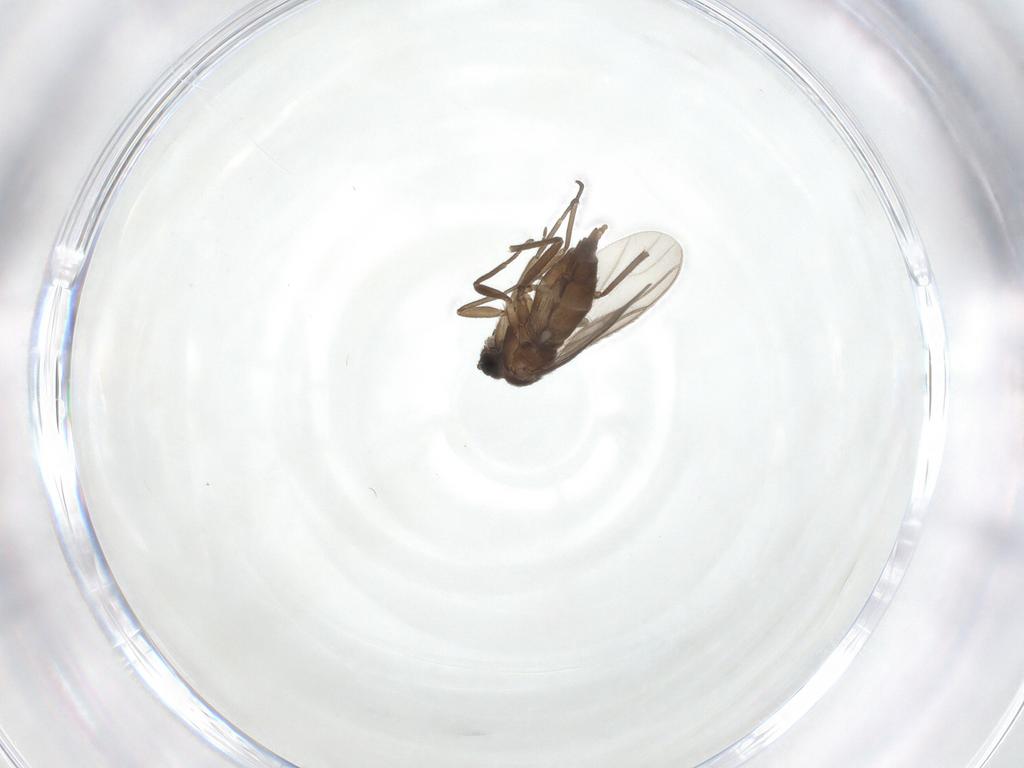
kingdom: Animalia
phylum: Arthropoda
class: Insecta
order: Diptera
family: Sciaridae
